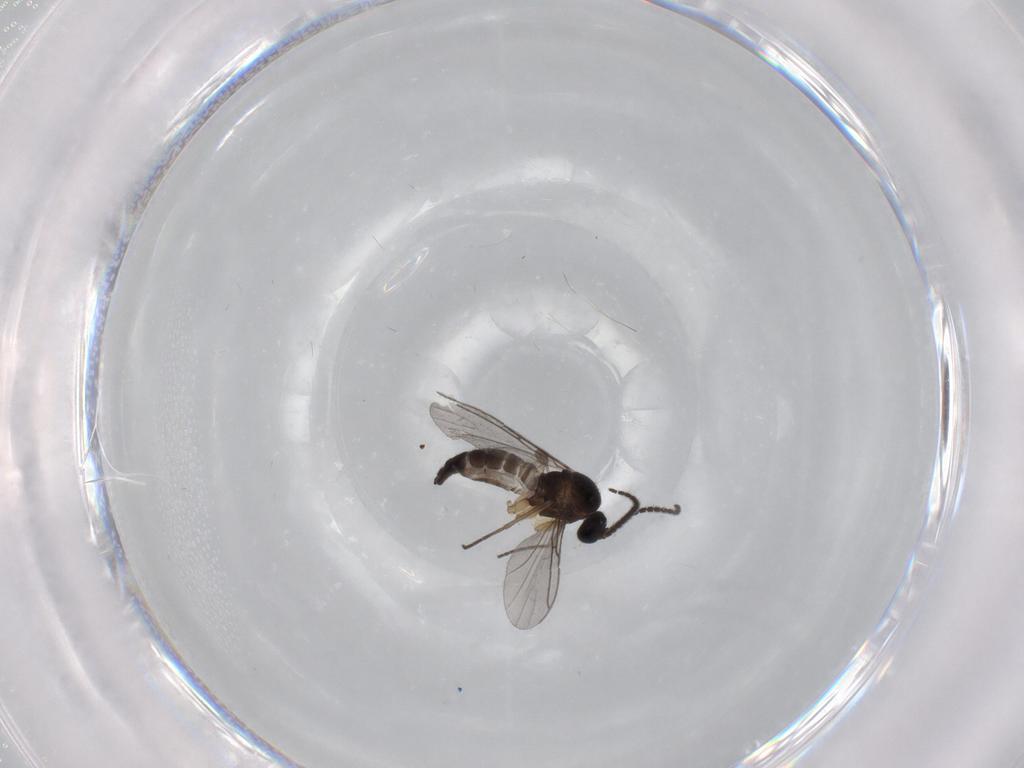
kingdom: Animalia
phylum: Arthropoda
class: Insecta
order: Diptera
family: Sciaridae
